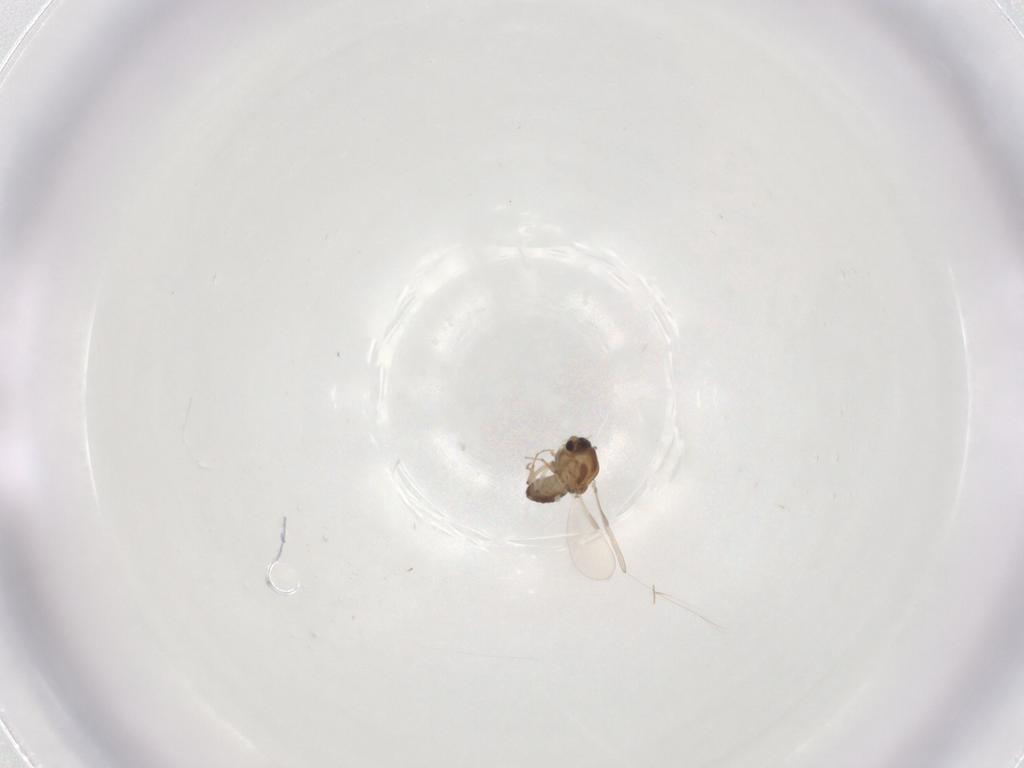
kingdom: Animalia
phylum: Arthropoda
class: Insecta
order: Diptera
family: Chironomidae
